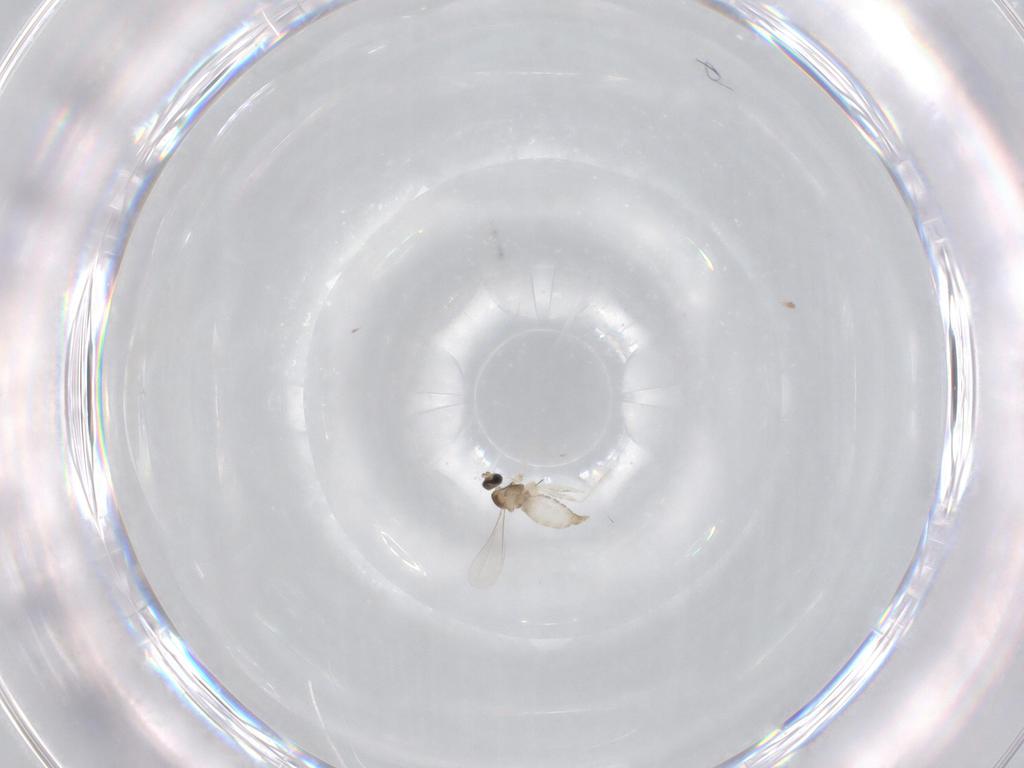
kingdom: Animalia
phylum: Arthropoda
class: Insecta
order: Diptera
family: Chironomidae
